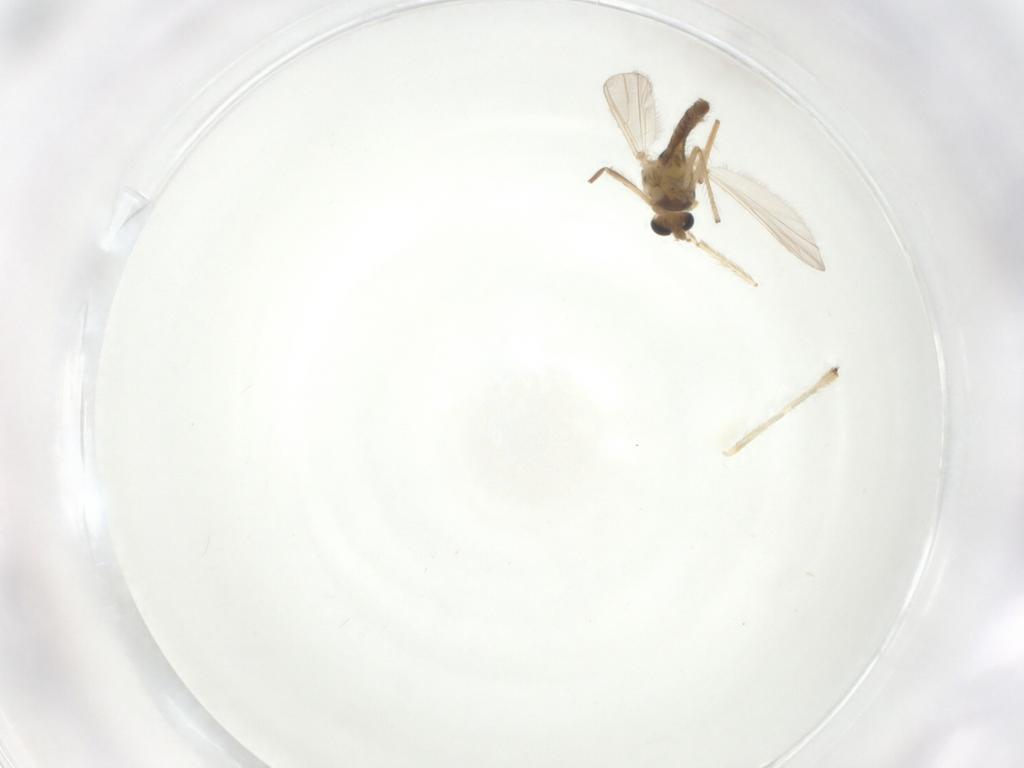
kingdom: Animalia
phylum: Arthropoda
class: Insecta
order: Diptera
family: Chironomidae
